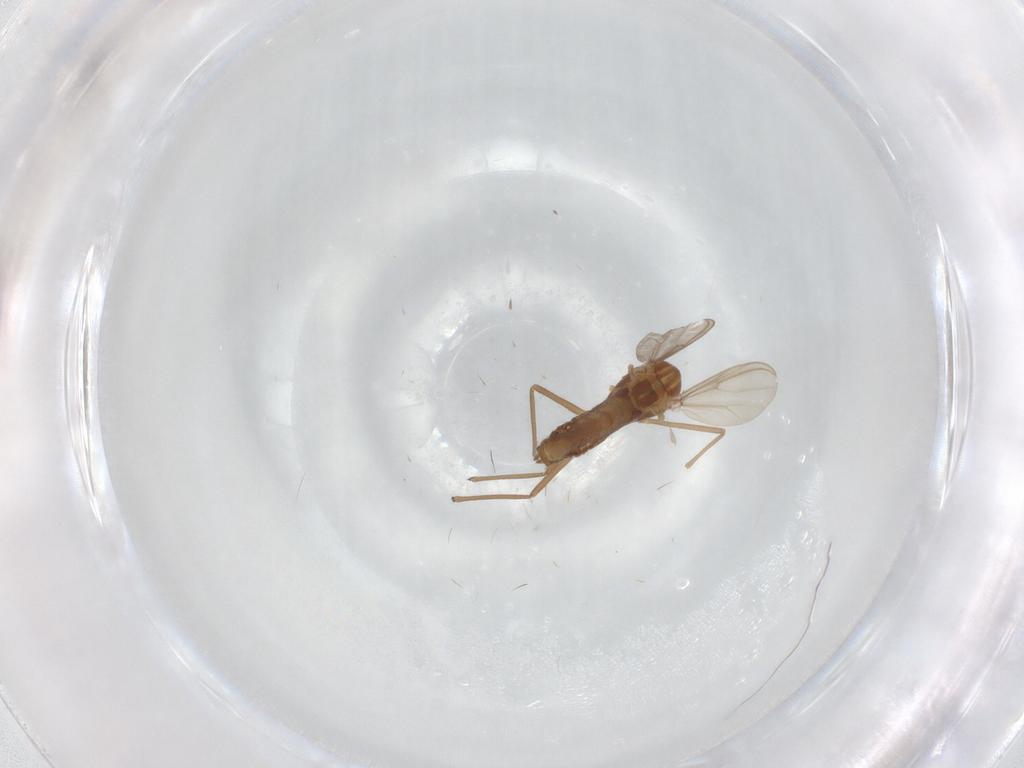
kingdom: Animalia
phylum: Arthropoda
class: Insecta
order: Diptera
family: Chironomidae
